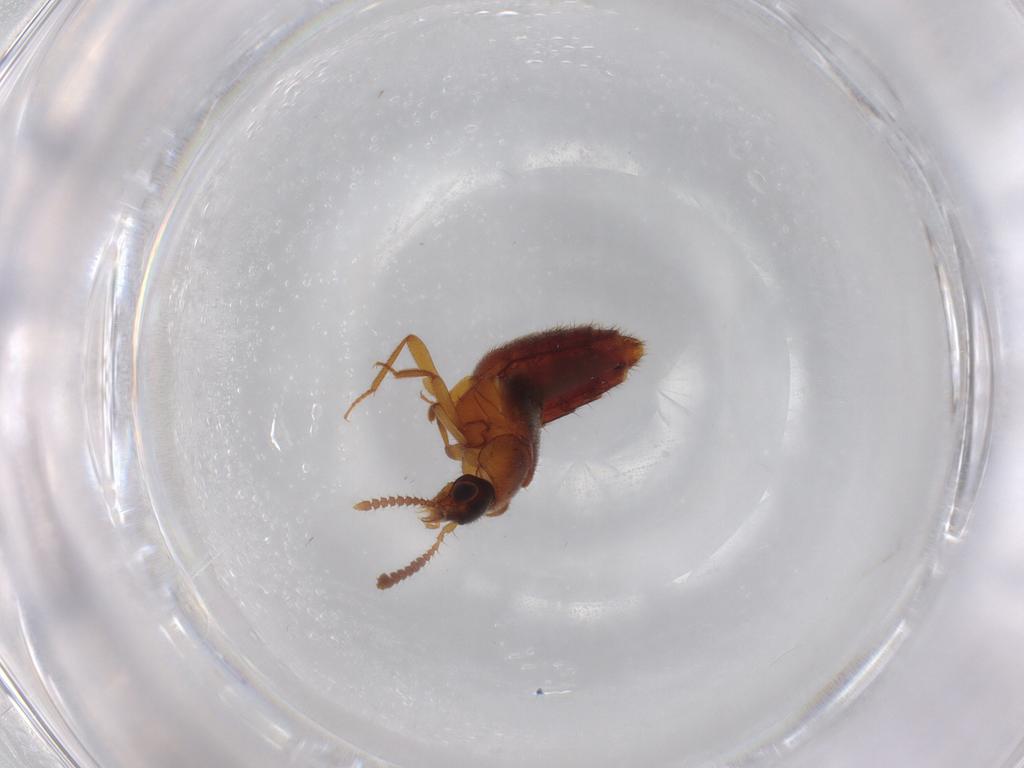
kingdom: Animalia
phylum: Arthropoda
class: Insecta
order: Coleoptera
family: Staphylinidae
